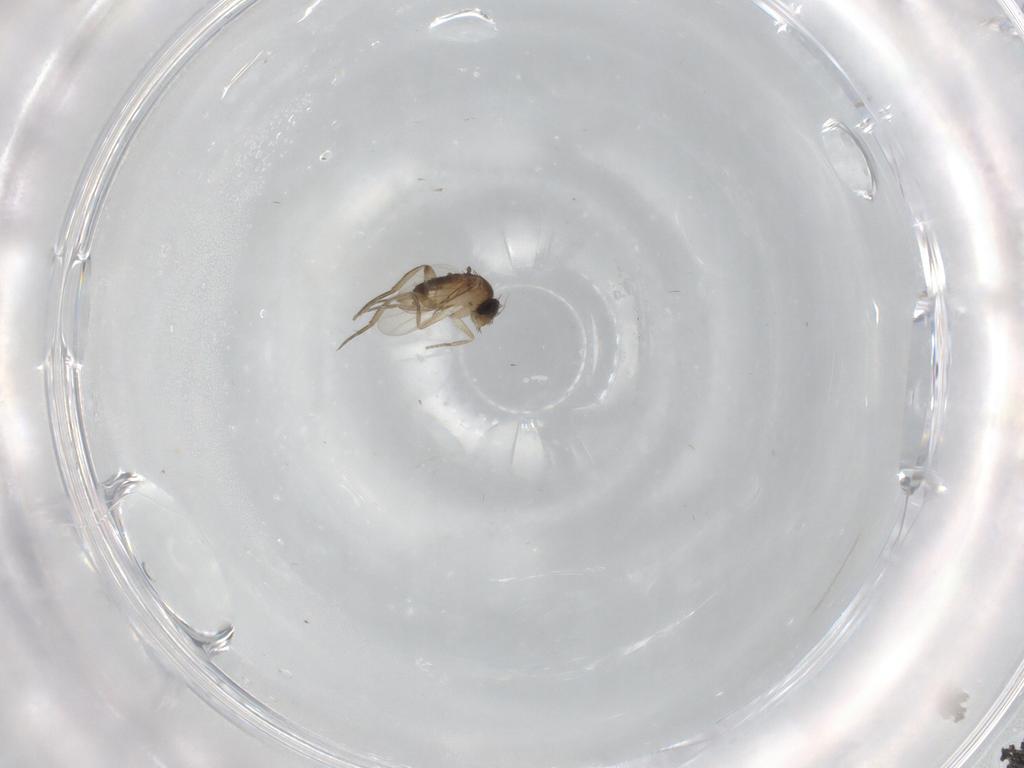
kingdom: Animalia
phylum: Arthropoda
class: Insecta
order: Diptera
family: Phoridae
